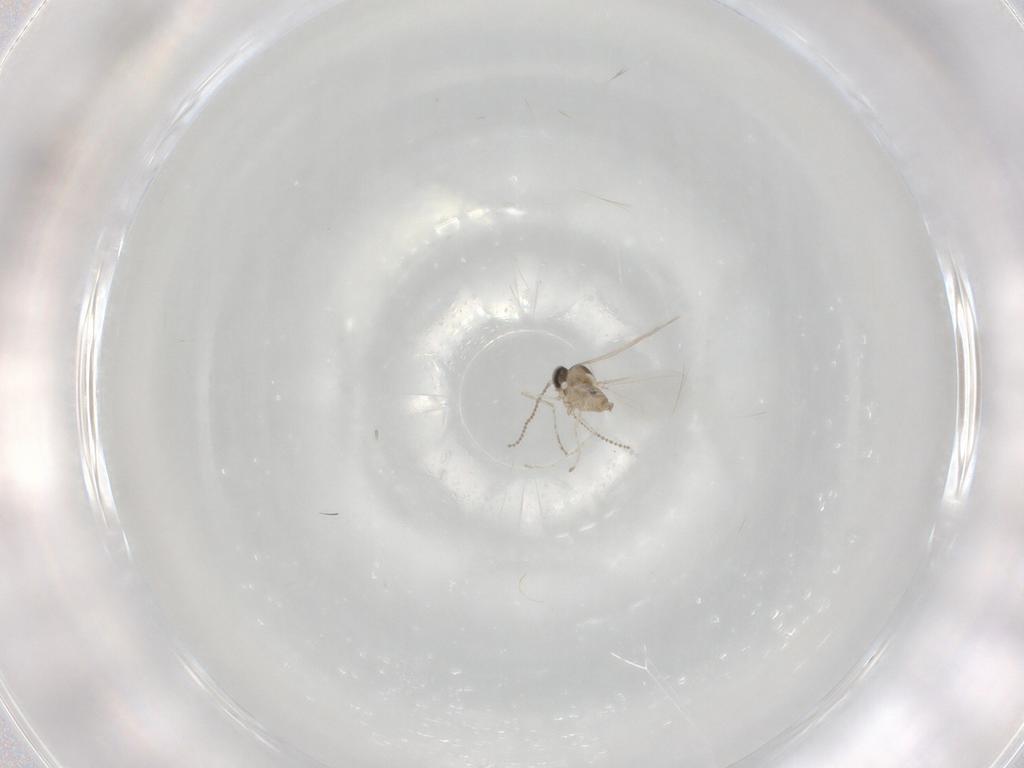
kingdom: Animalia
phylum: Arthropoda
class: Insecta
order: Diptera
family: Cecidomyiidae
